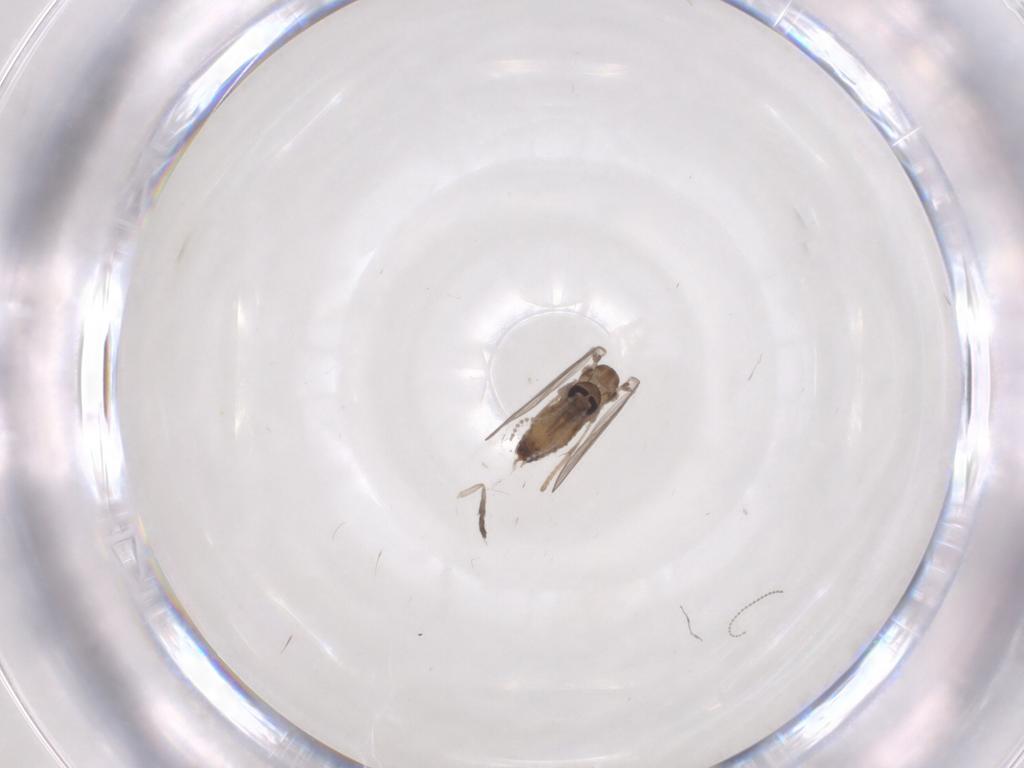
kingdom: Animalia
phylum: Arthropoda
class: Insecta
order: Diptera
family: Psychodidae
